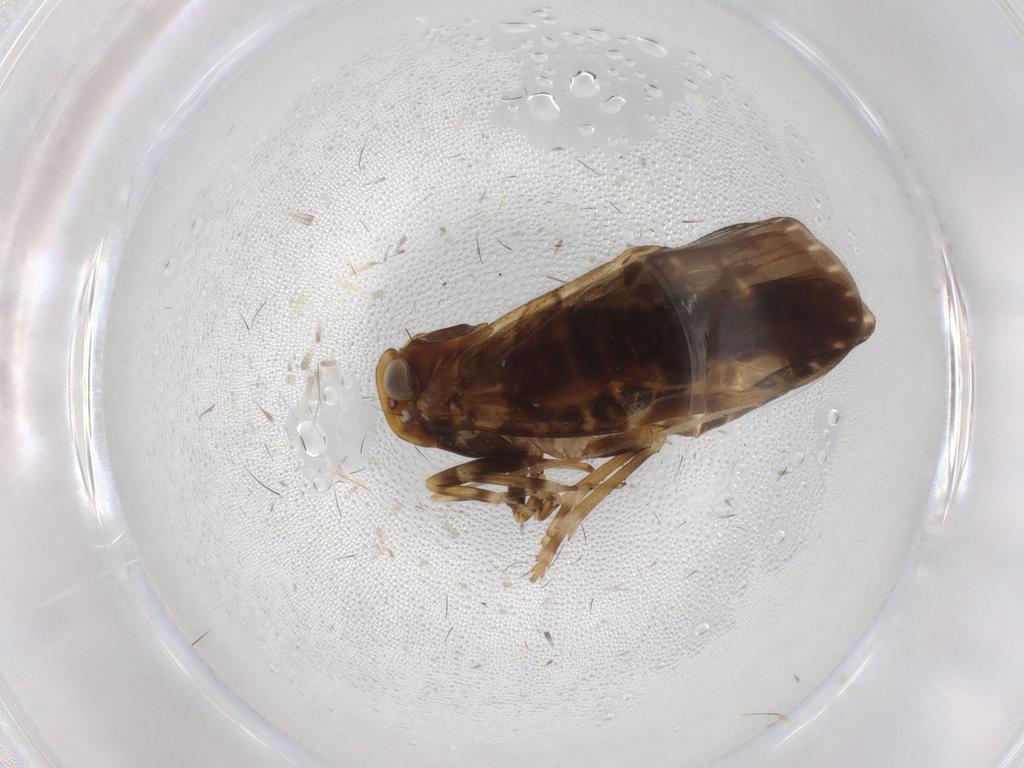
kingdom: Animalia
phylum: Arthropoda
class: Insecta
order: Hemiptera
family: Cixiidae
